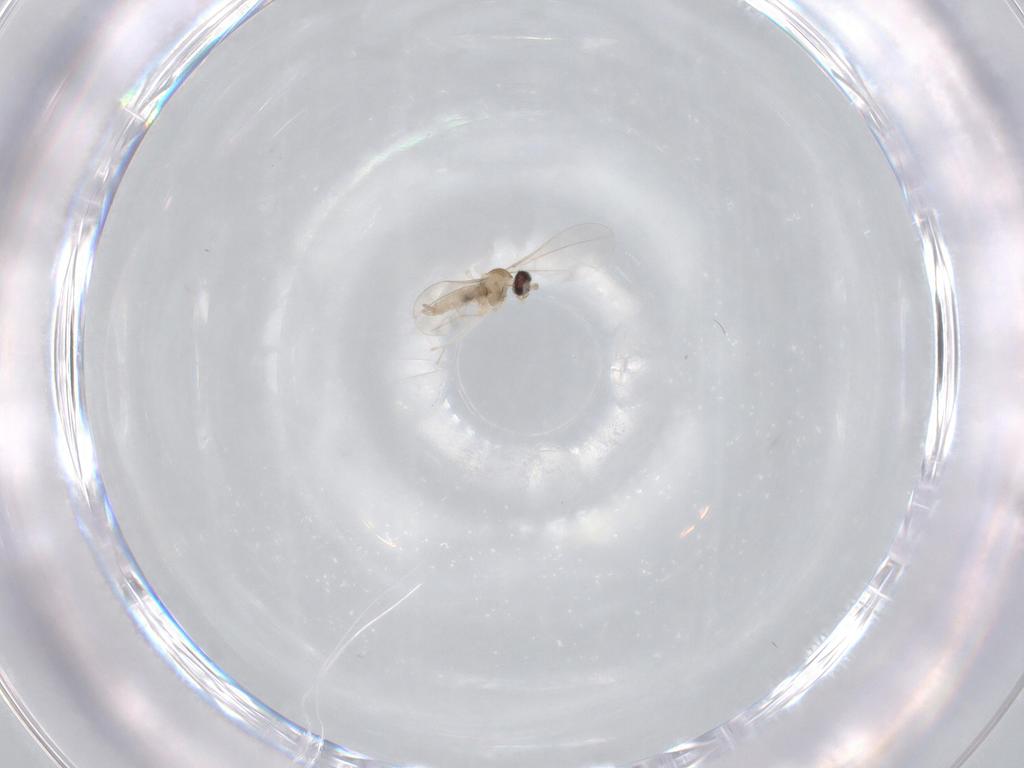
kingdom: Animalia
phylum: Arthropoda
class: Insecta
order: Diptera
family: Cecidomyiidae
